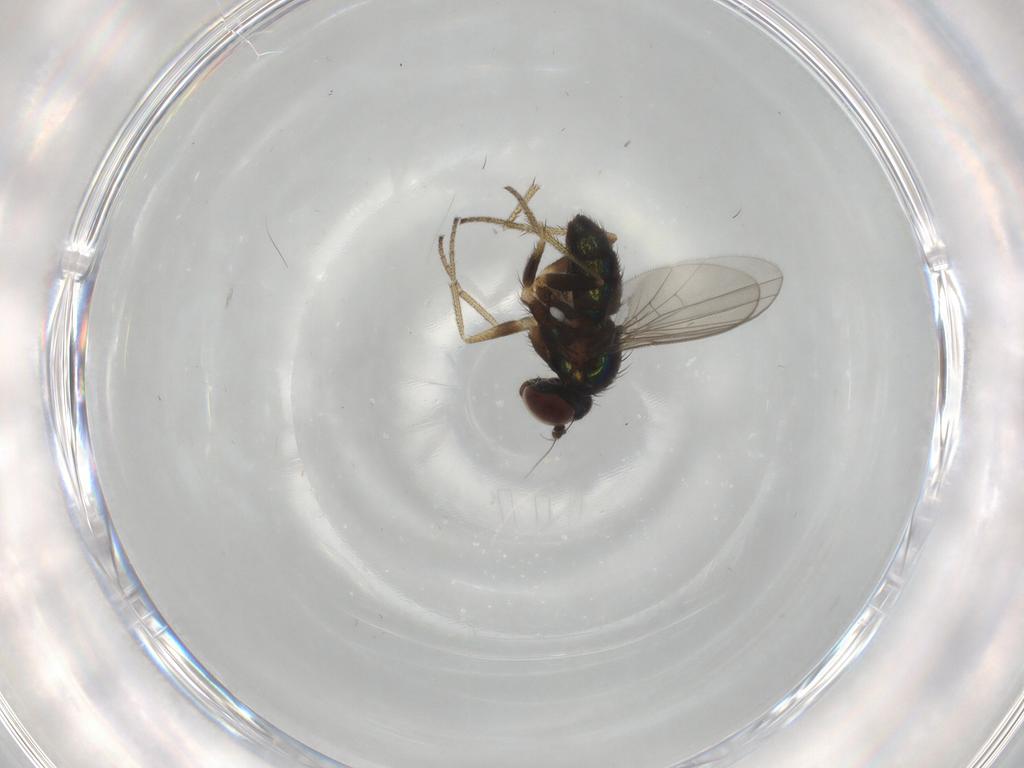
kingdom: Animalia
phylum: Arthropoda
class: Insecta
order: Diptera
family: Dolichopodidae
